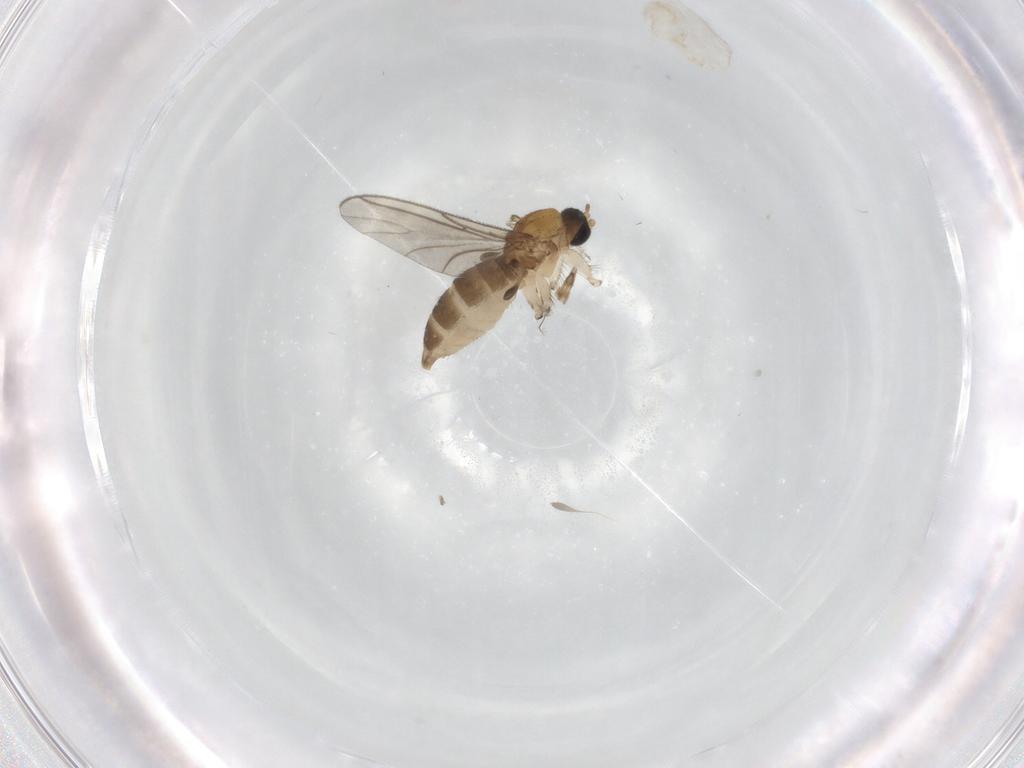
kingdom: Animalia
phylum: Arthropoda
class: Insecta
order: Diptera
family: Sciaridae
